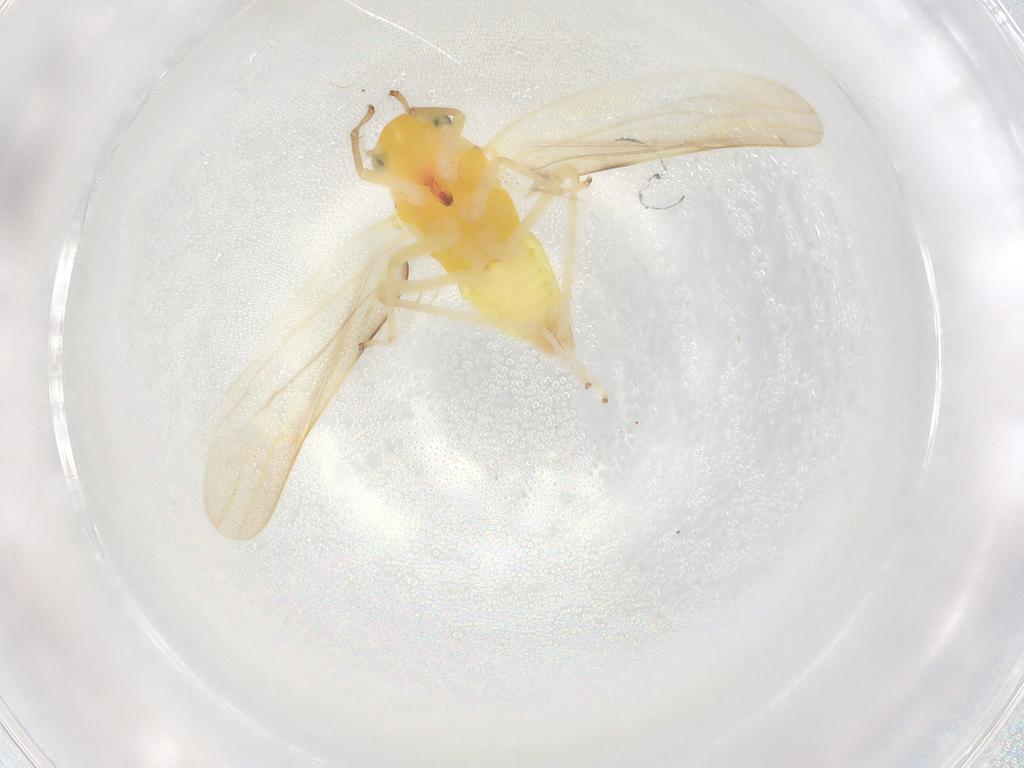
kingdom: Animalia
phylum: Arthropoda
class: Insecta
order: Hemiptera
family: Cicadellidae
